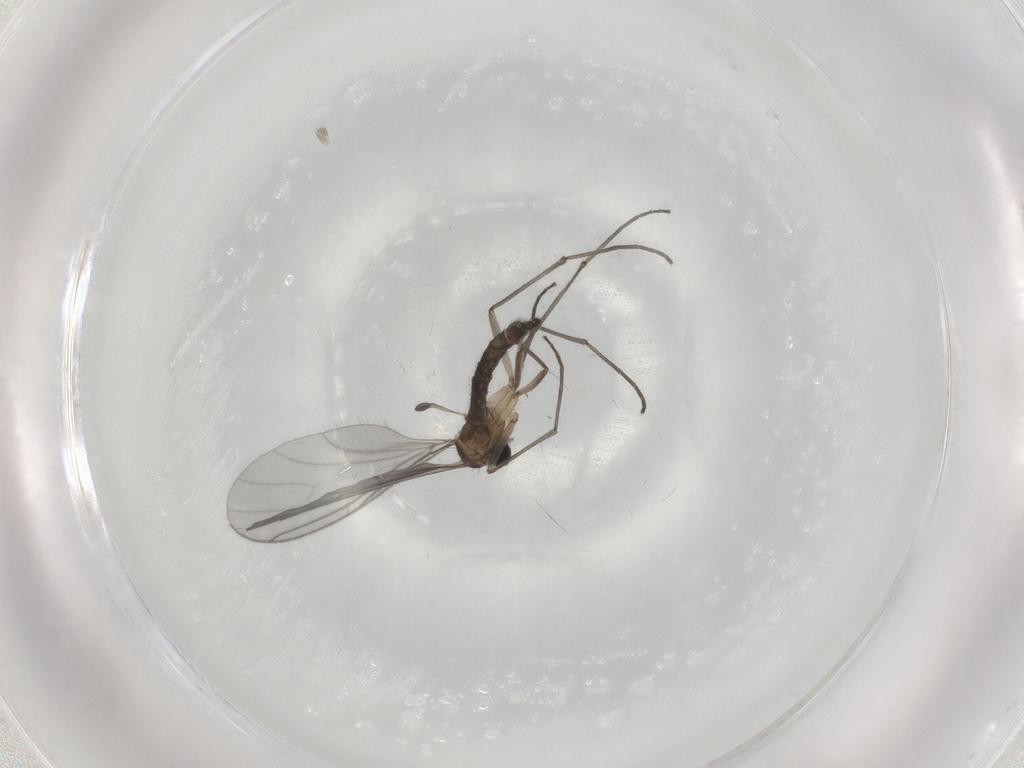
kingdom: Animalia
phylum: Arthropoda
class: Insecta
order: Diptera
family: Sciaridae
